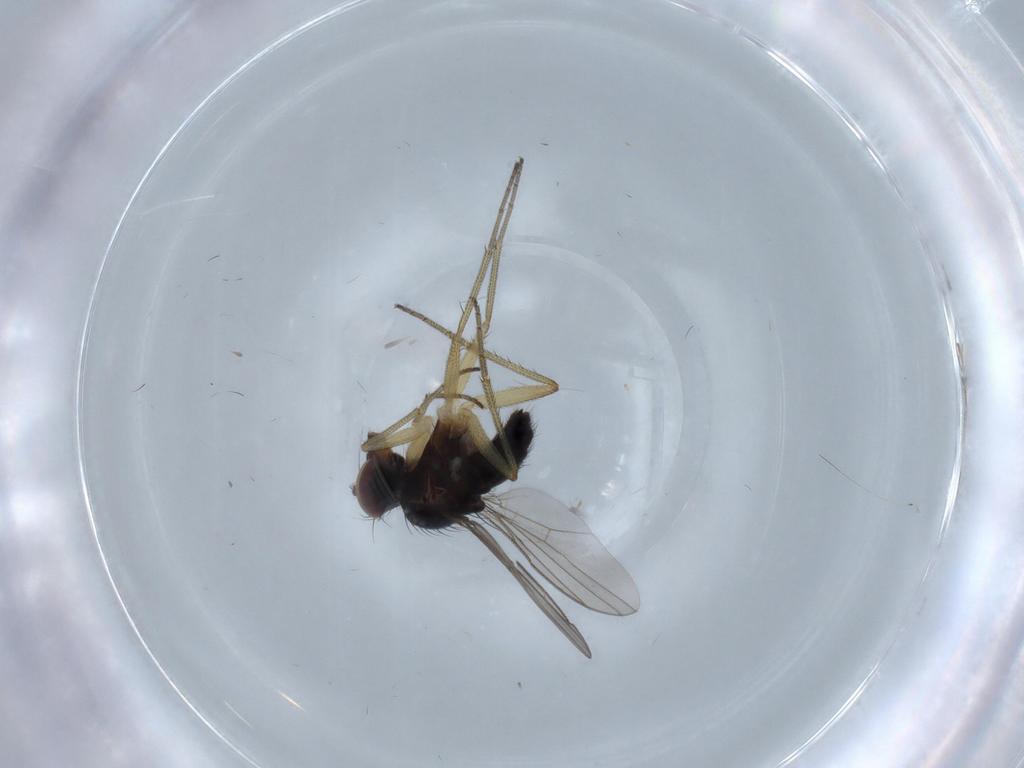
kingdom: Animalia
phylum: Arthropoda
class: Insecta
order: Diptera
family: Dolichopodidae
